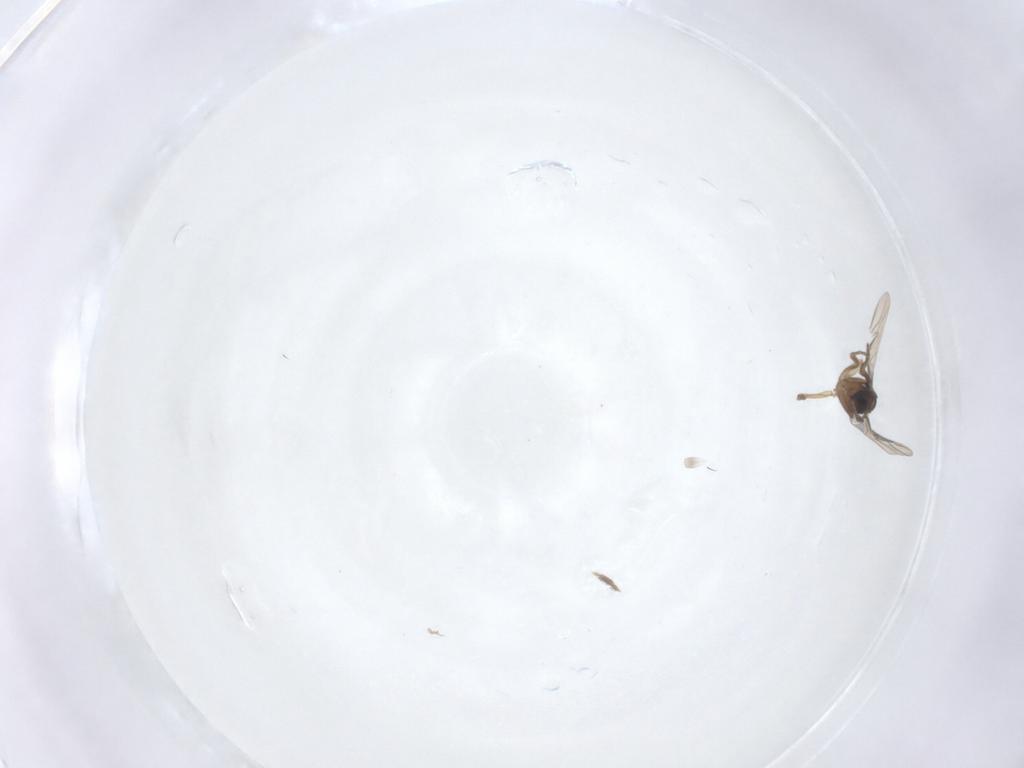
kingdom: Animalia
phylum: Arthropoda
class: Insecta
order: Diptera
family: Phoridae
